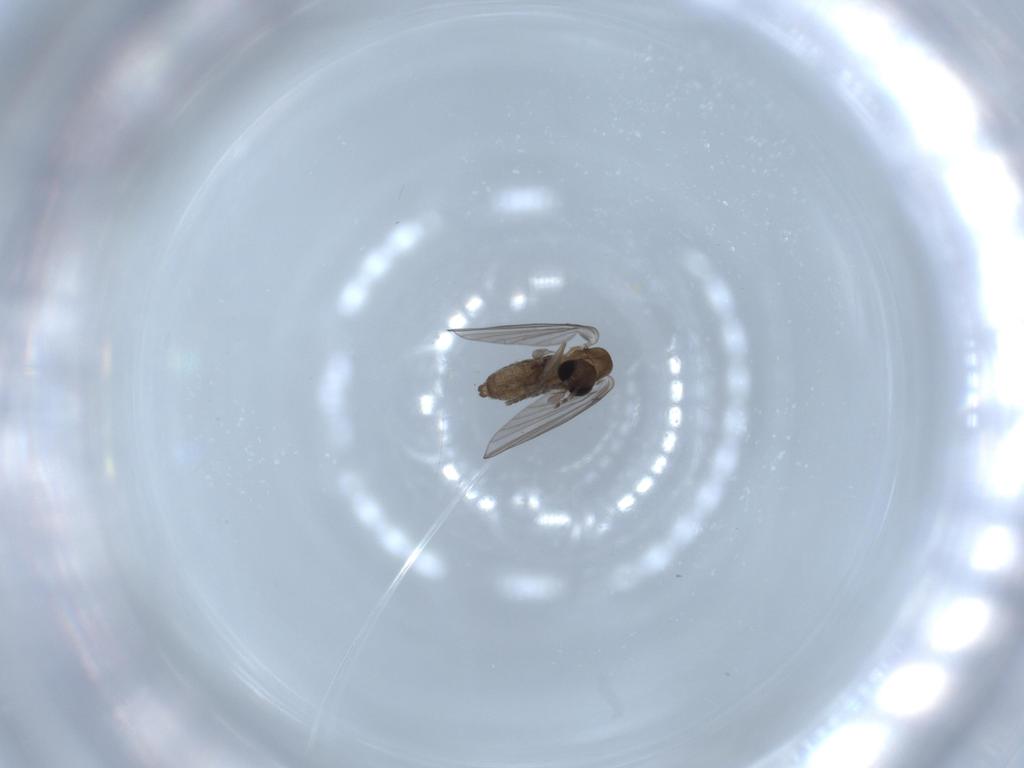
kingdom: Animalia
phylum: Arthropoda
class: Insecta
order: Diptera
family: Psychodidae
